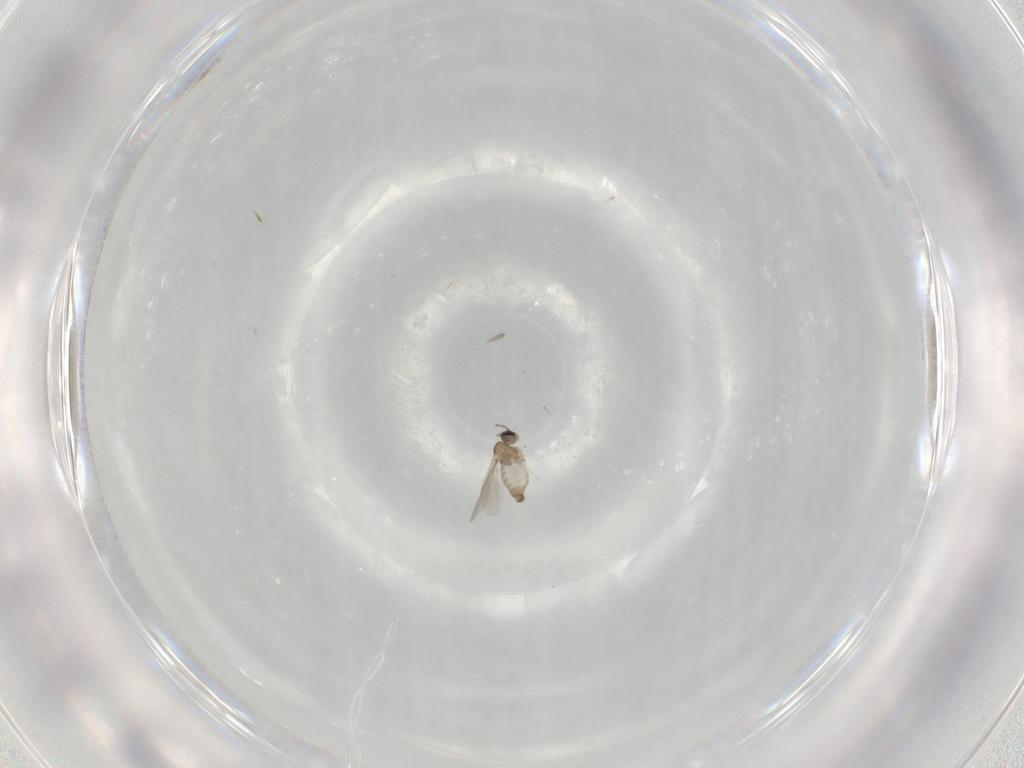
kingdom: Animalia
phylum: Arthropoda
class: Insecta
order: Diptera
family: Cecidomyiidae
